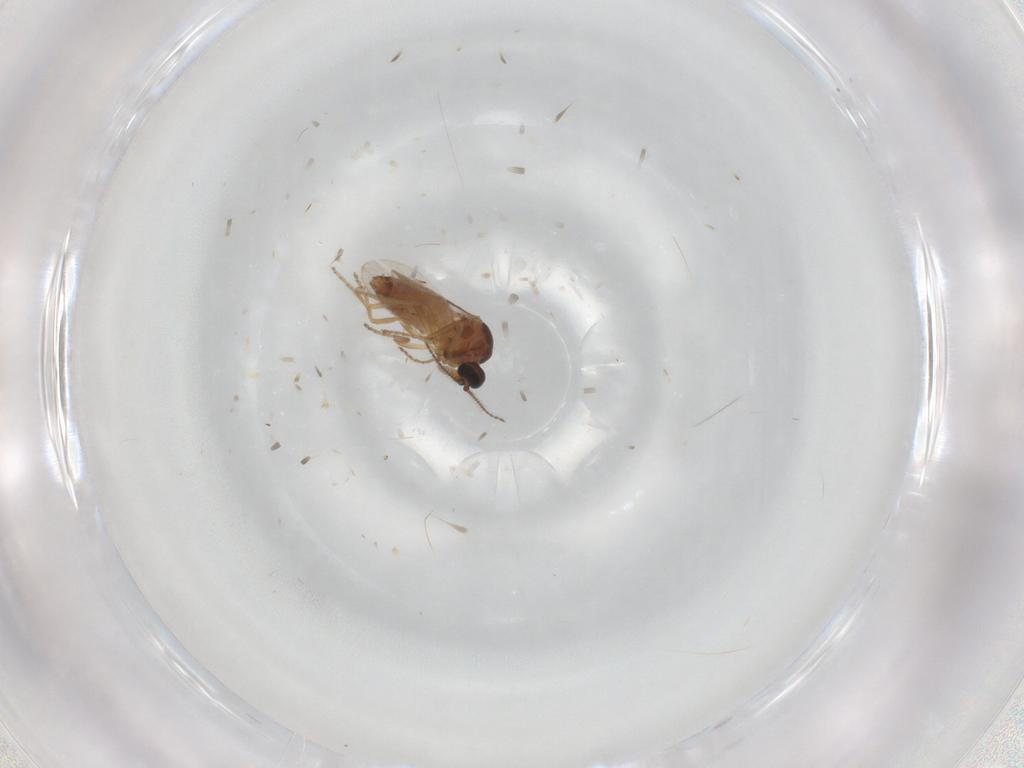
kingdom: Animalia
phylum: Arthropoda
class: Insecta
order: Diptera
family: Ceratopogonidae
